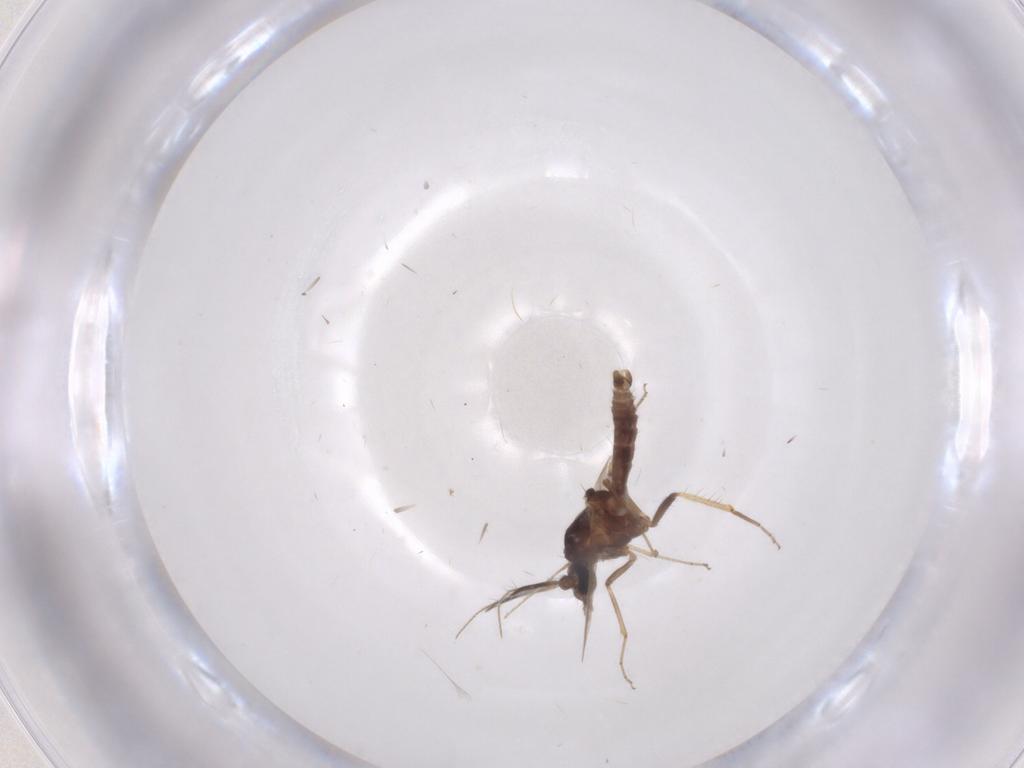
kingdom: Animalia
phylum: Arthropoda
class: Insecta
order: Diptera
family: Ceratopogonidae
